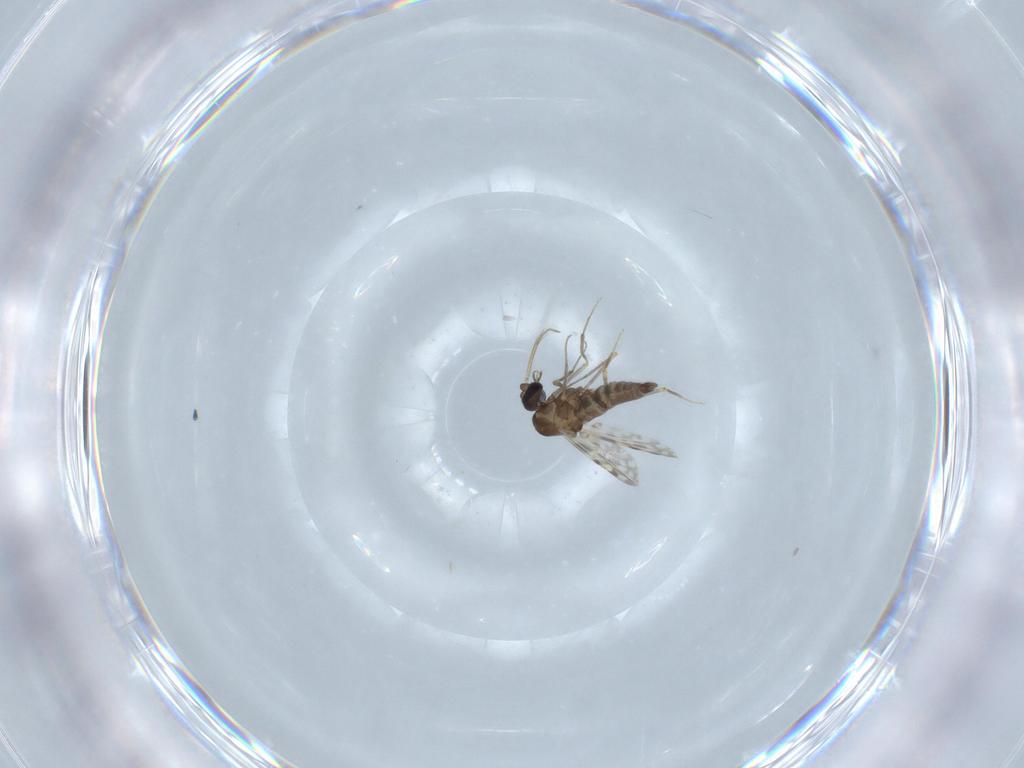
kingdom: Animalia
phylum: Arthropoda
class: Insecta
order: Diptera
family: Ceratopogonidae
